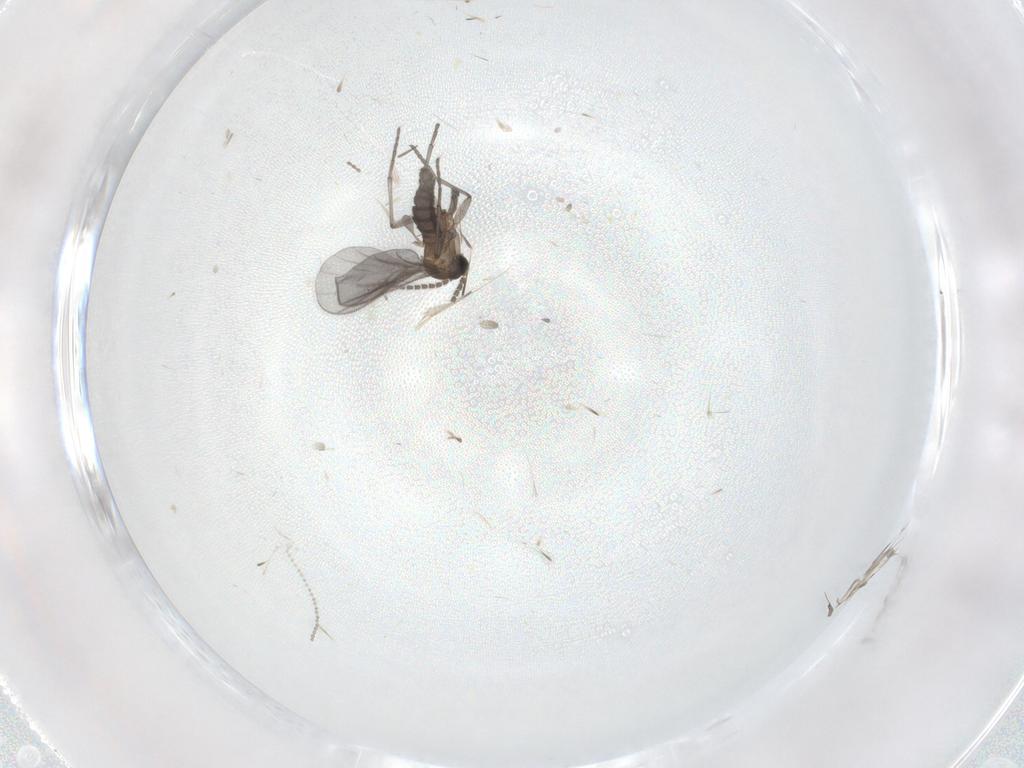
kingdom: Animalia
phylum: Arthropoda
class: Insecta
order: Diptera
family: Sciaridae
